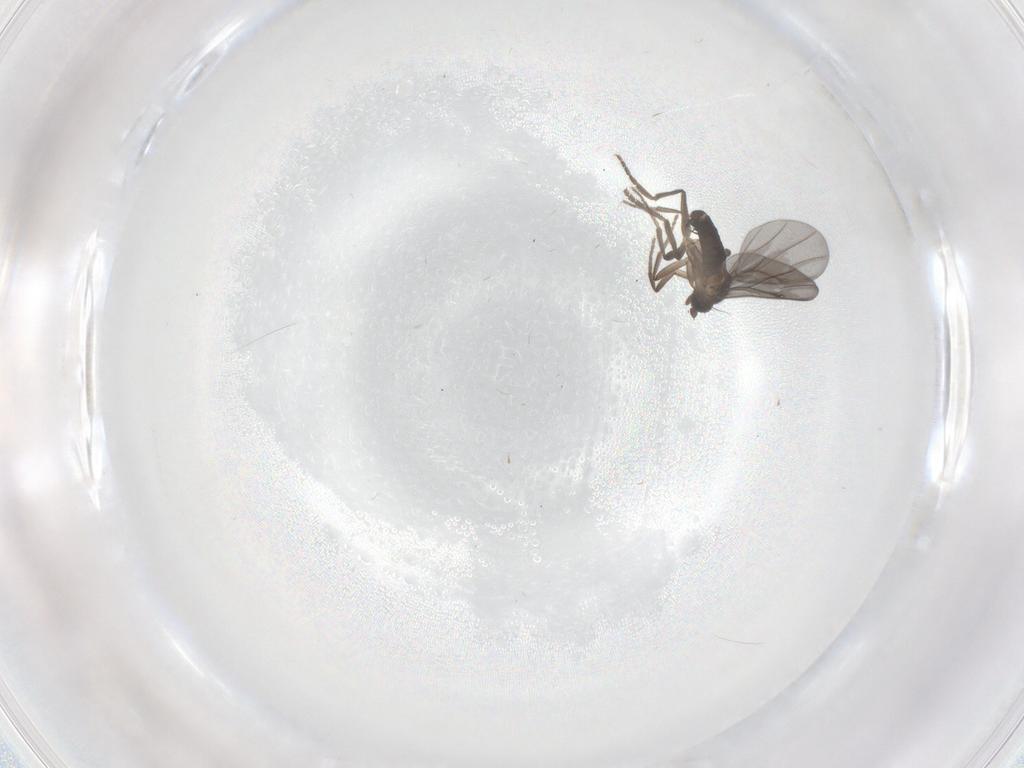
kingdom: Animalia
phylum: Arthropoda
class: Insecta
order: Diptera
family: Phoridae
